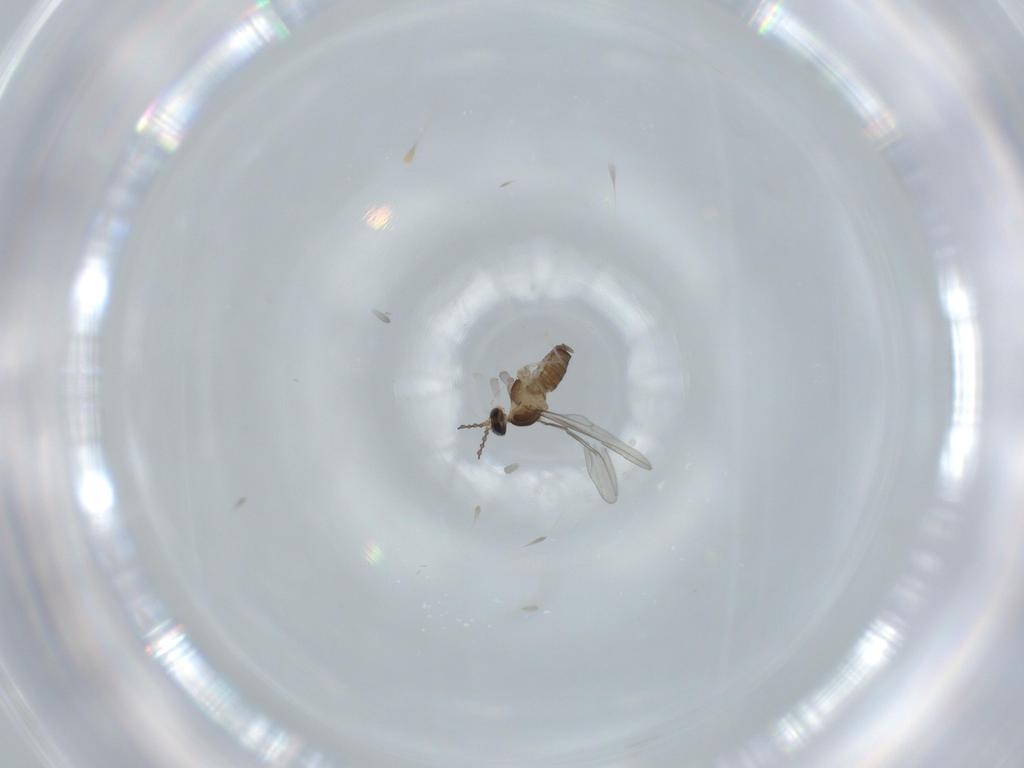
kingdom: Animalia
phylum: Arthropoda
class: Insecta
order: Diptera
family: Cecidomyiidae
